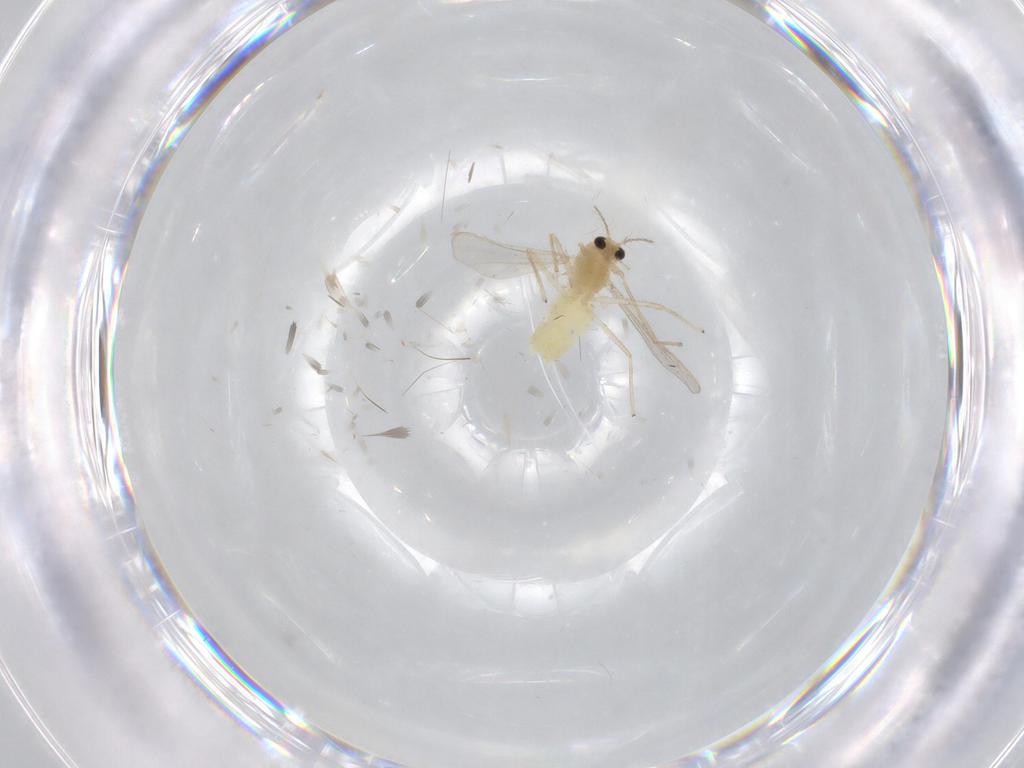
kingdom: Animalia
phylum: Arthropoda
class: Insecta
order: Diptera
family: Chironomidae
